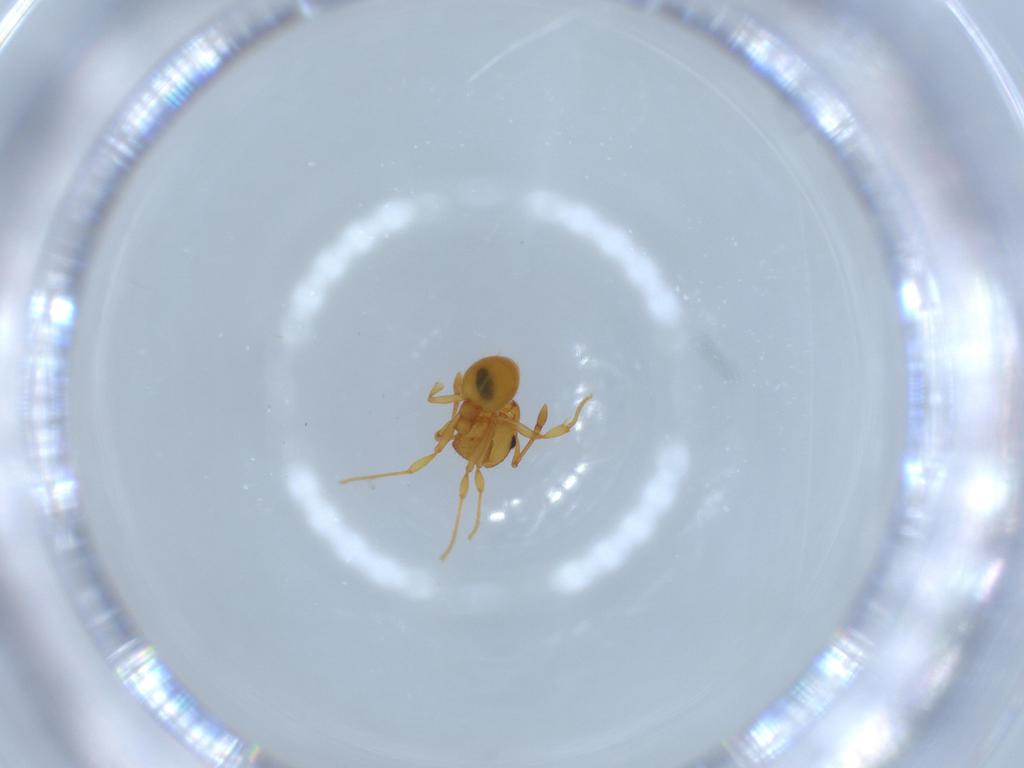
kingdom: Animalia
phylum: Arthropoda
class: Insecta
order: Hymenoptera
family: Formicidae
